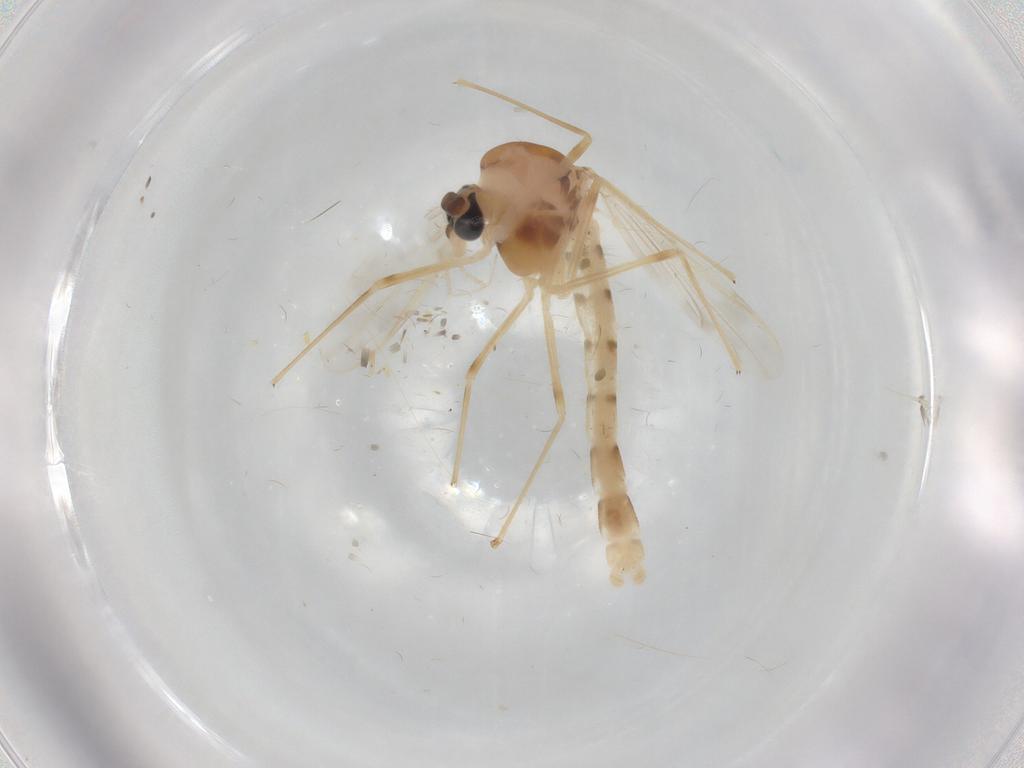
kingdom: Animalia
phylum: Arthropoda
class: Insecta
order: Diptera
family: Chironomidae
